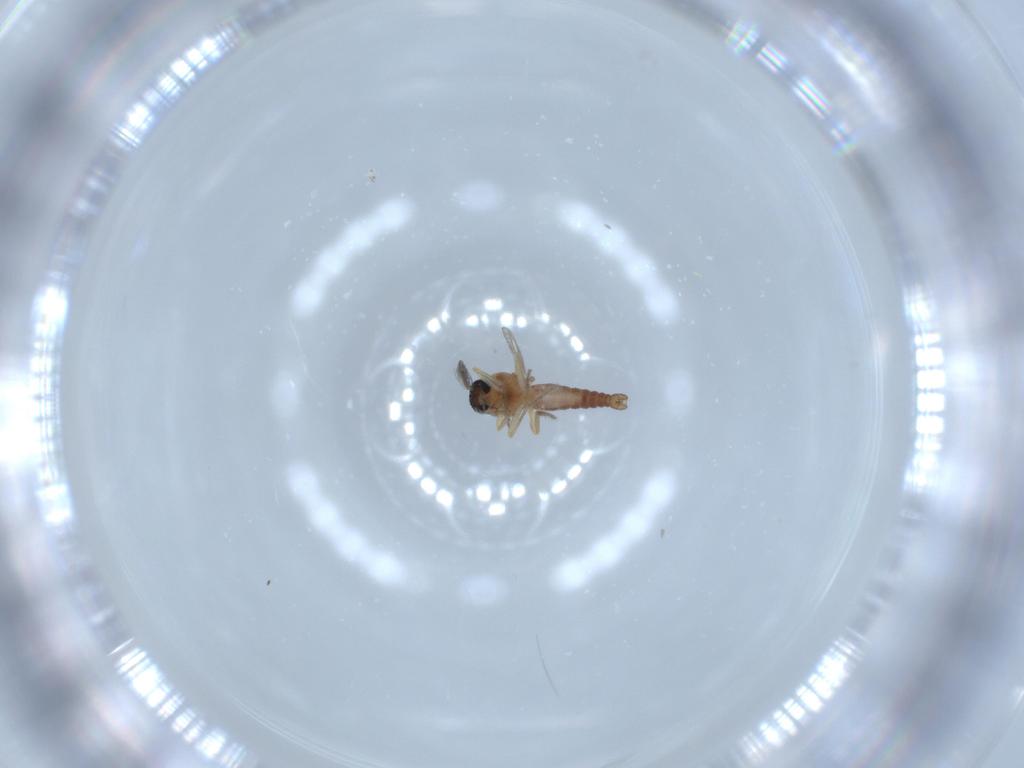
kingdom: Animalia
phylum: Arthropoda
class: Insecta
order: Diptera
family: Ceratopogonidae
